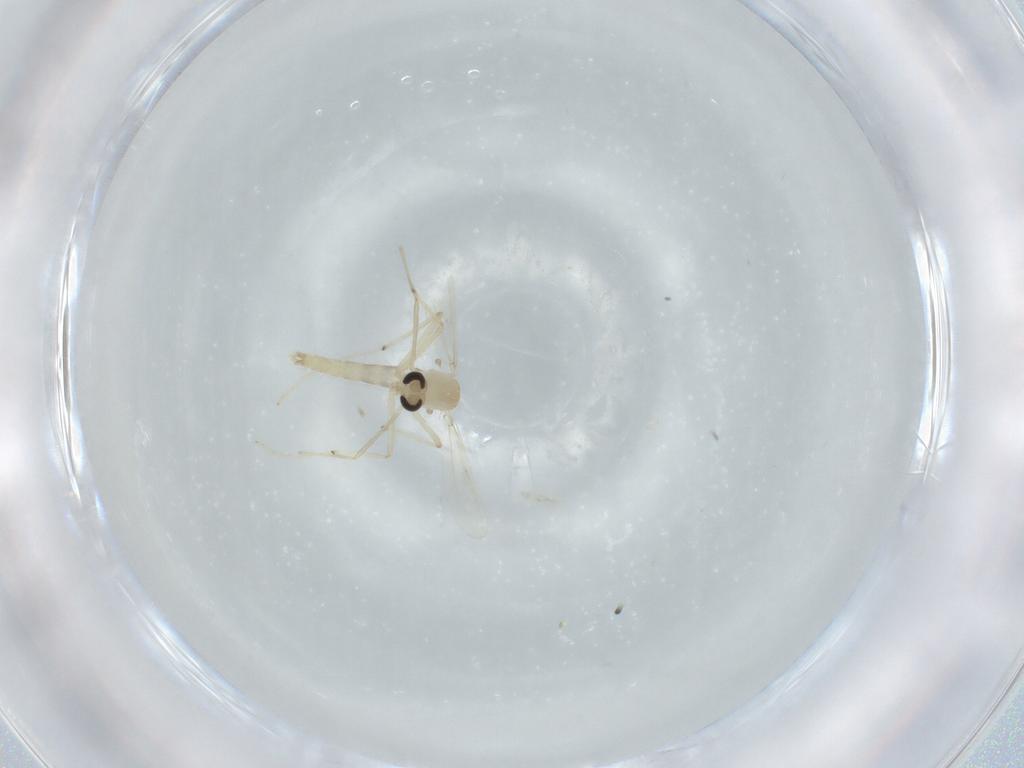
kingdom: Animalia
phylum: Arthropoda
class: Insecta
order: Diptera
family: Chironomidae
